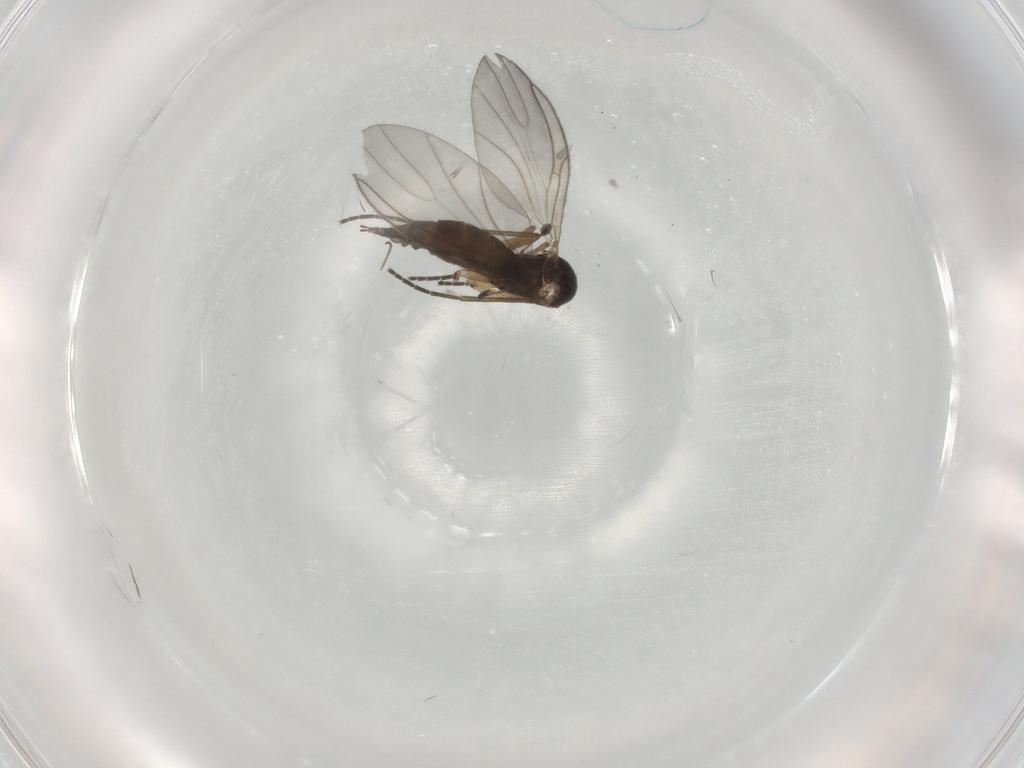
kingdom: Animalia
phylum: Arthropoda
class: Insecta
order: Diptera
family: Sciaridae
